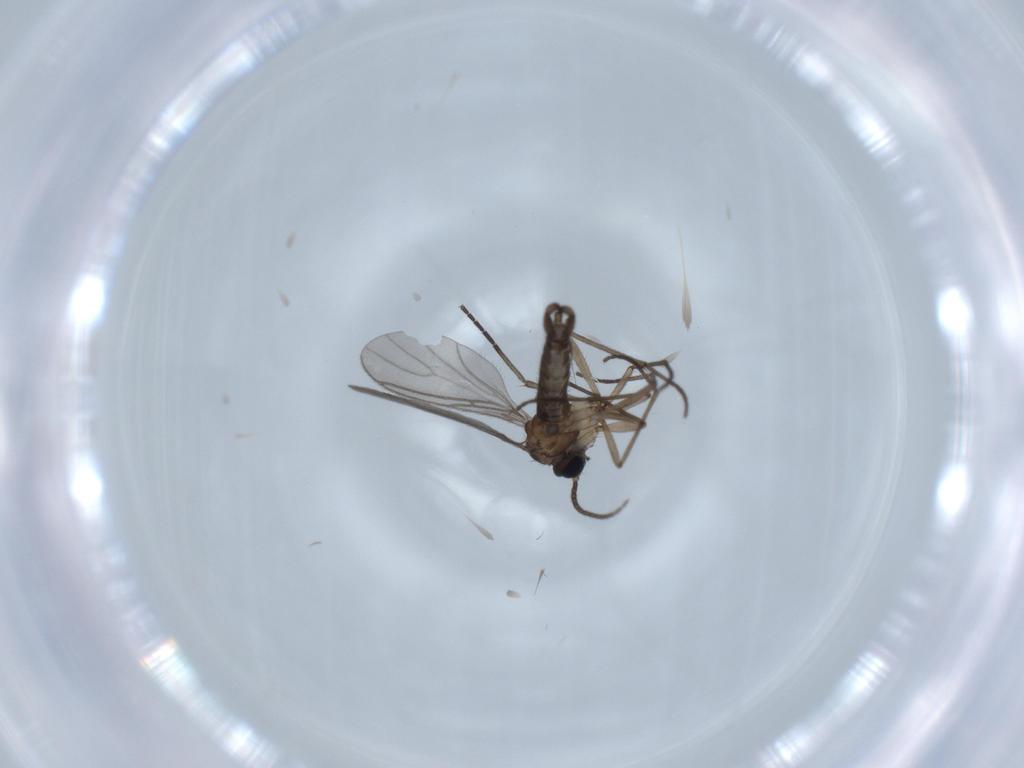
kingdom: Animalia
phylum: Arthropoda
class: Insecta
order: Diptera
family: Sciaridae
